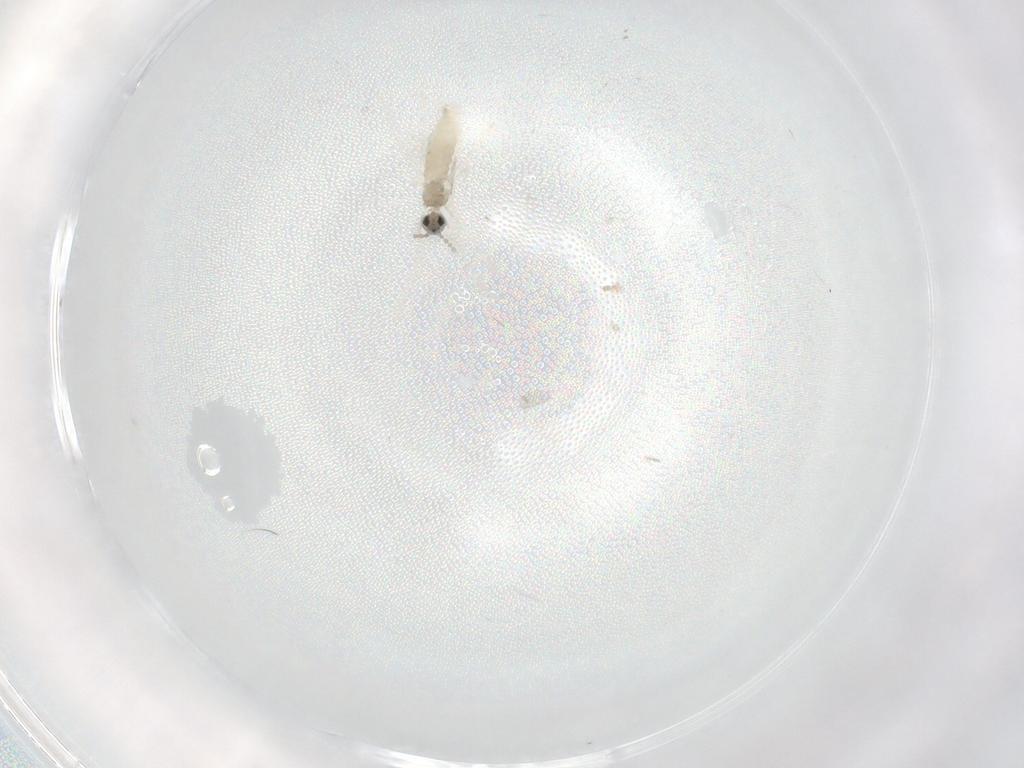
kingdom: Animalia
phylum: Arthropoda
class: Insecta
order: Diptera
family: Cecidomyiidae
